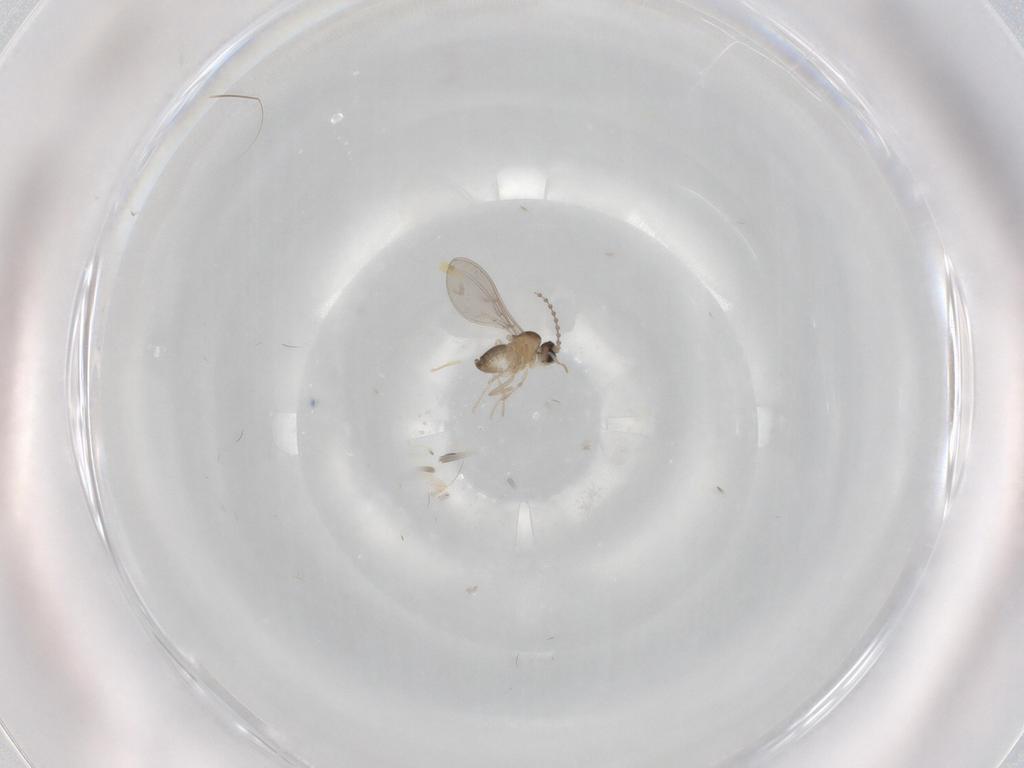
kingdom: Animalia
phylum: Arthropoda
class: Insecta
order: Diptera
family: Cecidomyiidae
